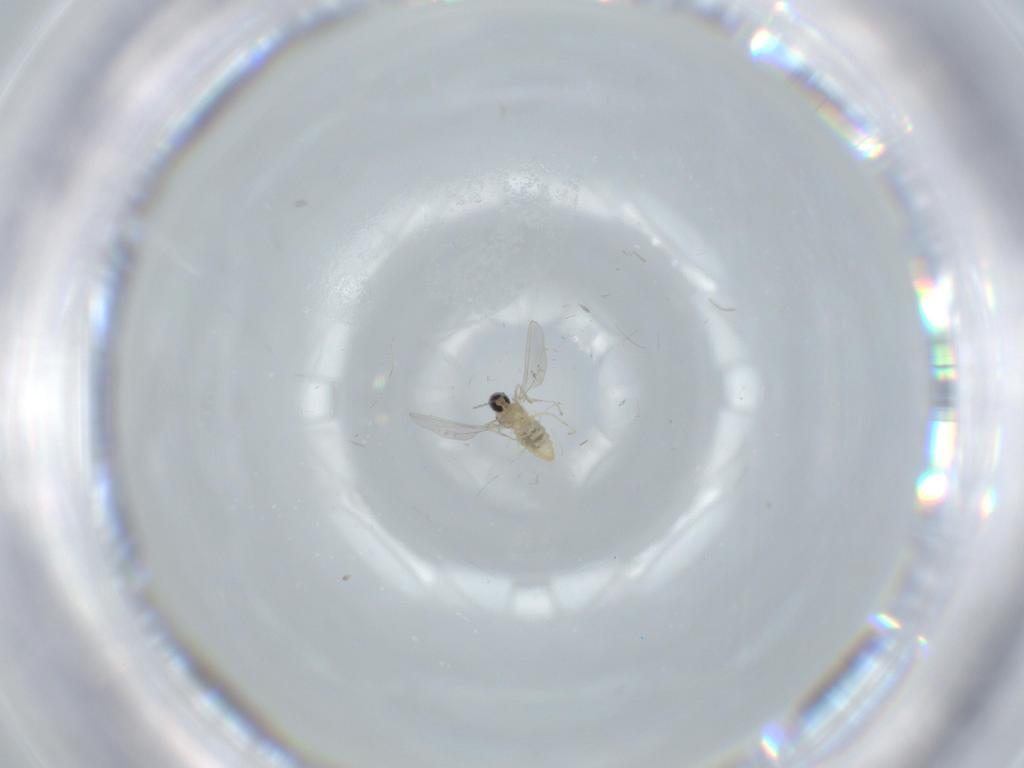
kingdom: Animalia
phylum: Arthropoda
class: Insecta
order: Diptera
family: Cecidomyiidae
